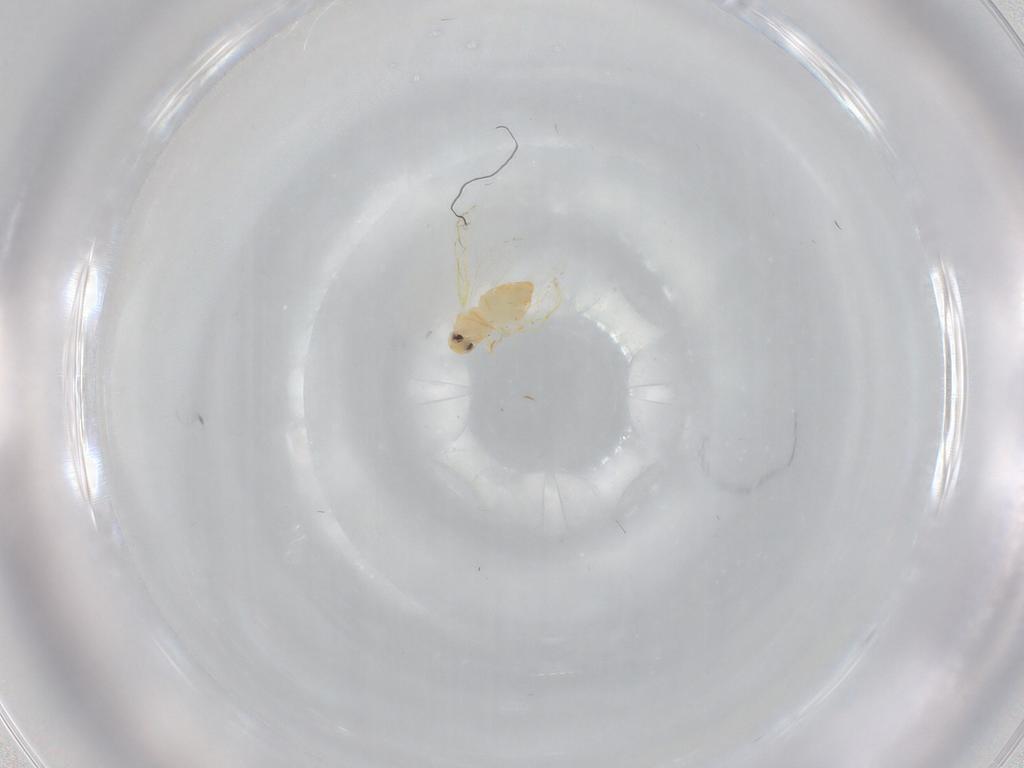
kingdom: Animalia
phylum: Arthropoda
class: Insecta
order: Hemiptera
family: Aleyrodidae
